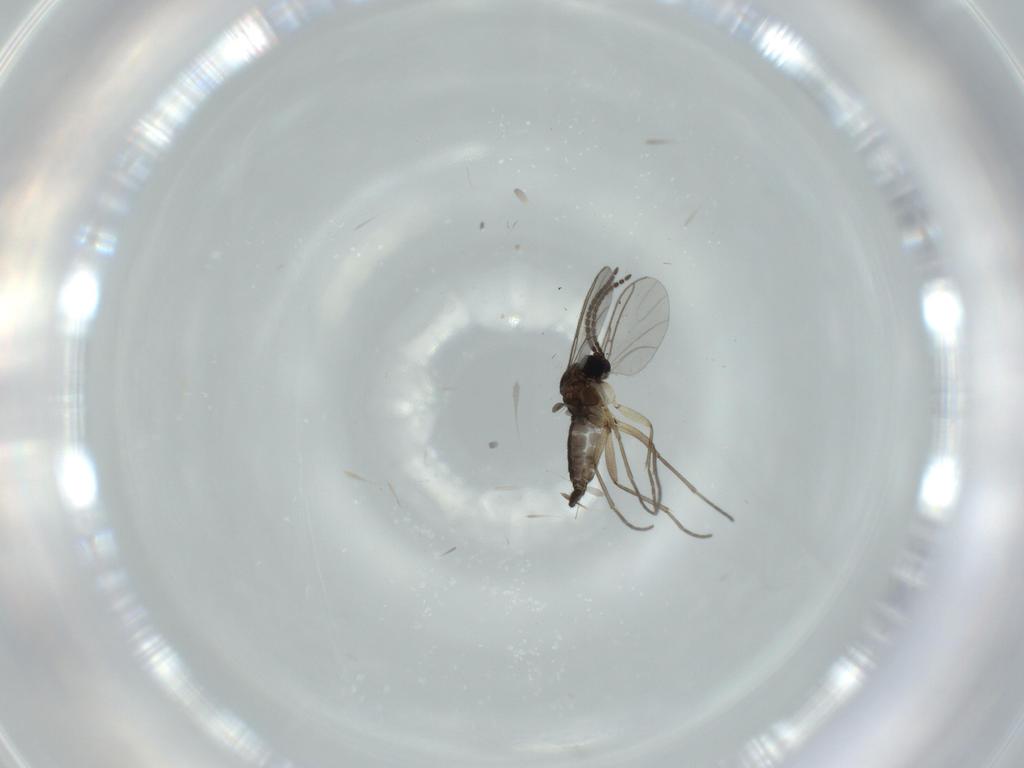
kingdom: Animalia
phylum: Arthropoda
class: Insecta
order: Diptera
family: Sciaridae
